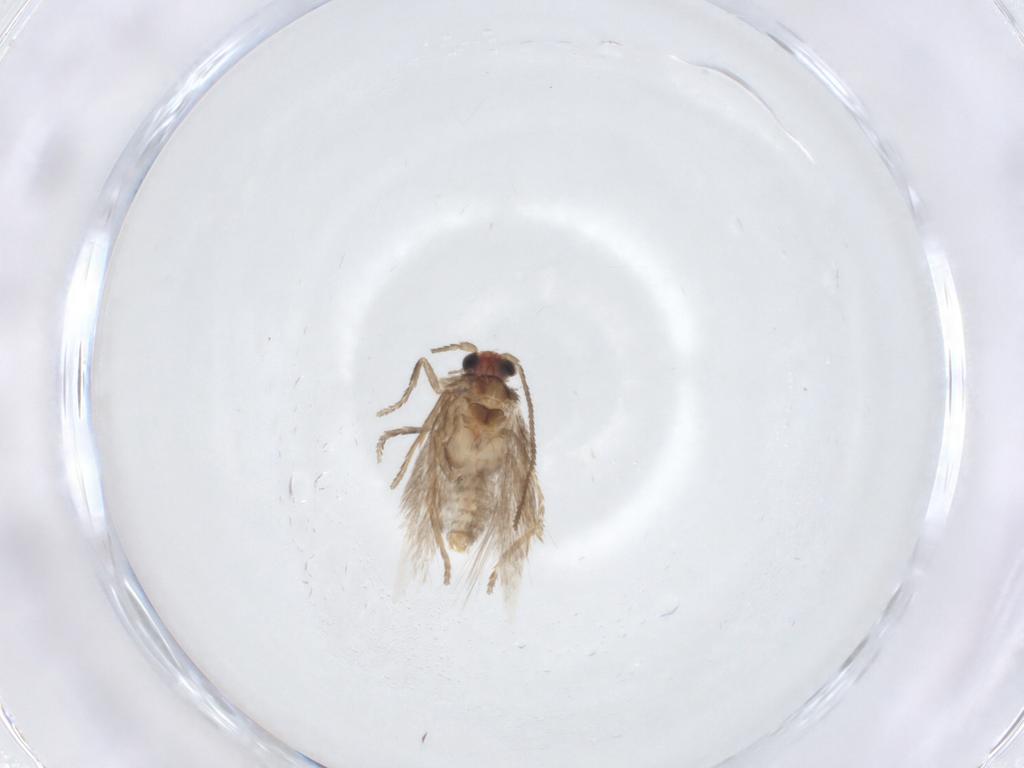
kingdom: Animalia
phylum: Arthropoda
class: Insecta
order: Lepidoptera
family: Nepticulidae
